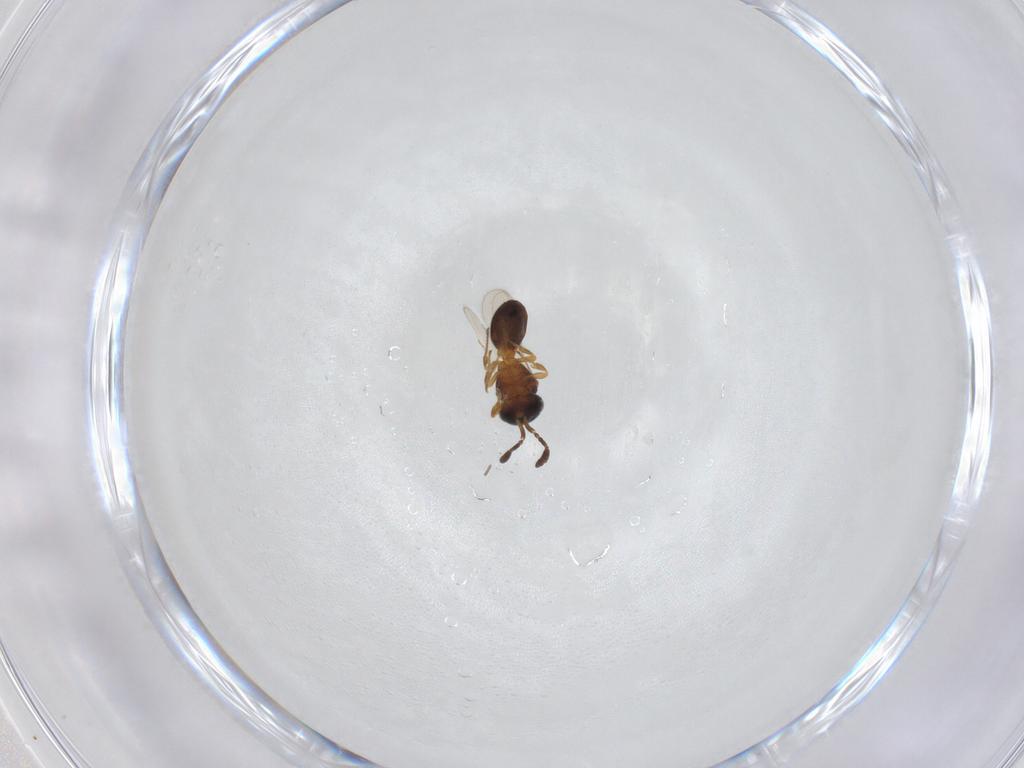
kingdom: Animalia
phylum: Arthropoda
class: Insecta
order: Hymenoptera
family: Scelionidae
